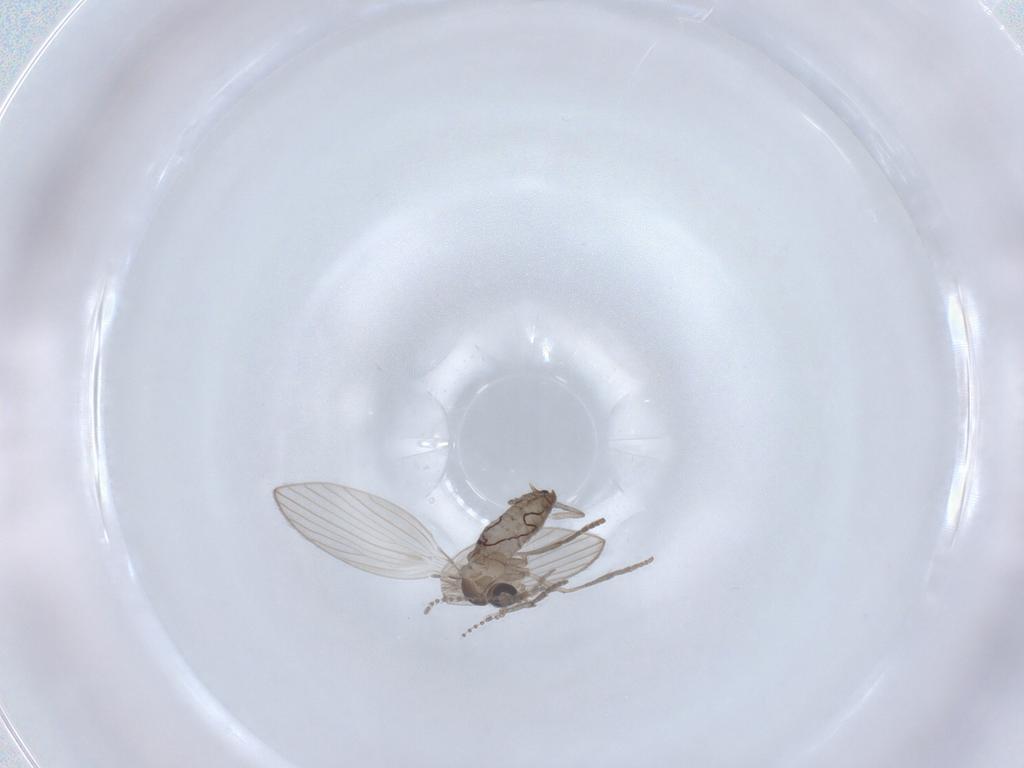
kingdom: Animalia
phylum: Arthropoda
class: Insecta
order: Diptera
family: Psychodidae
